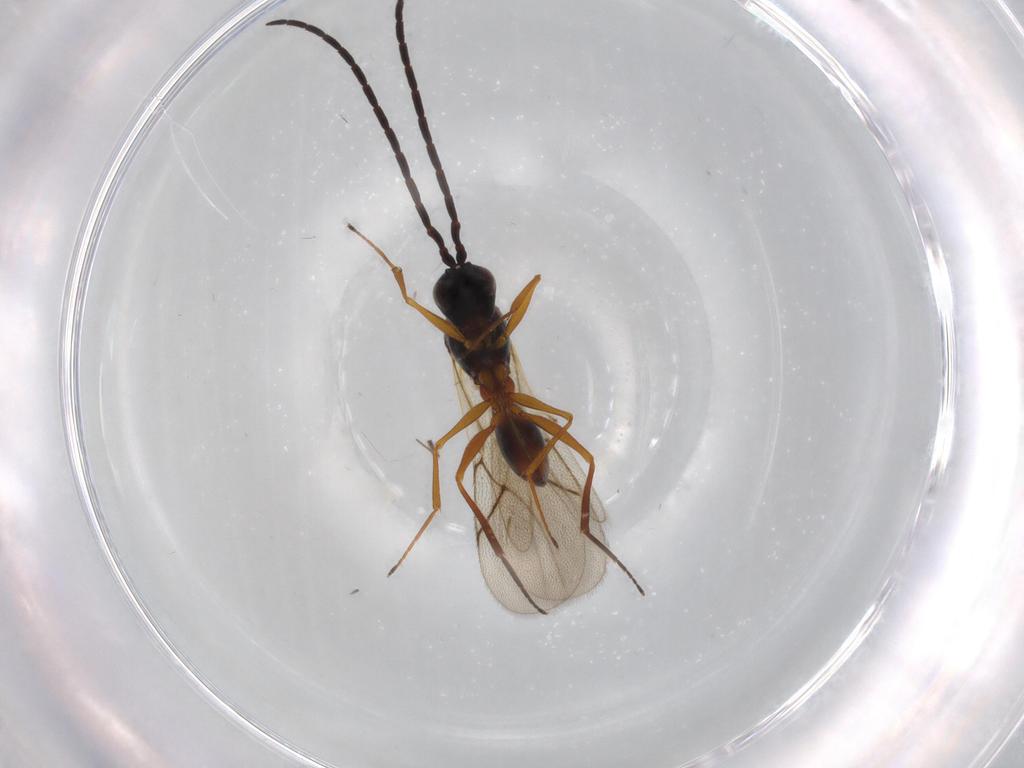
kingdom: Animalia
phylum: Arthropoda
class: Insecta
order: Hymenoptera
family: Figitidae
